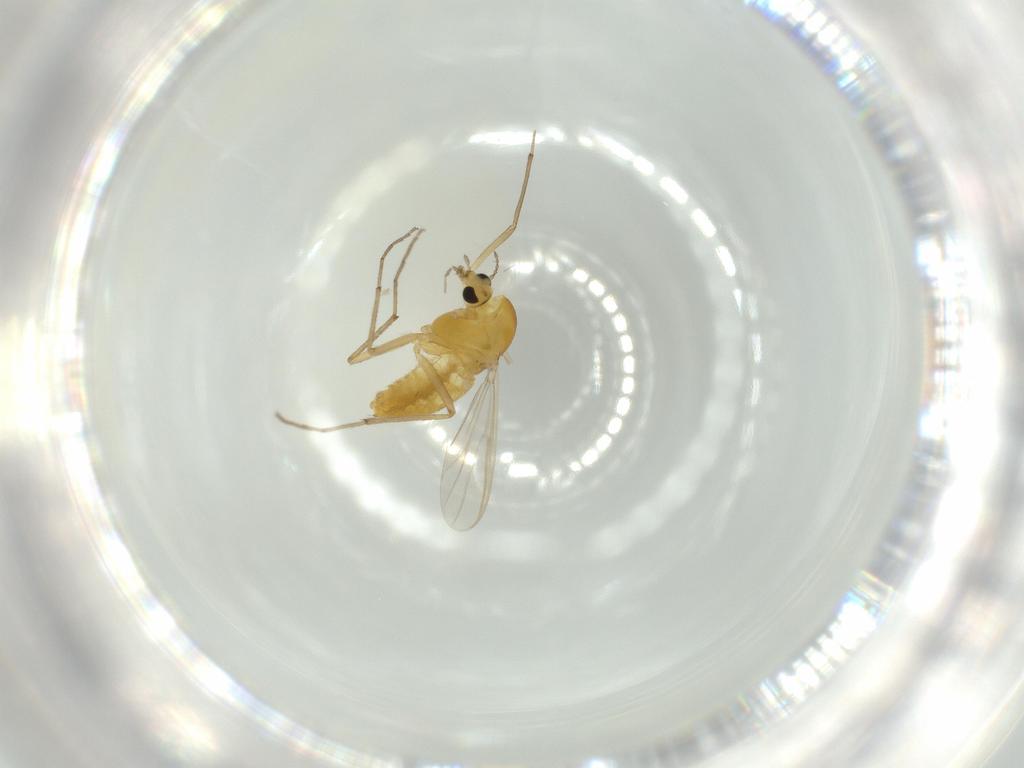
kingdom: Animalia
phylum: Arthropoda
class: Insecta
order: Diptera
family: Chironomidae
